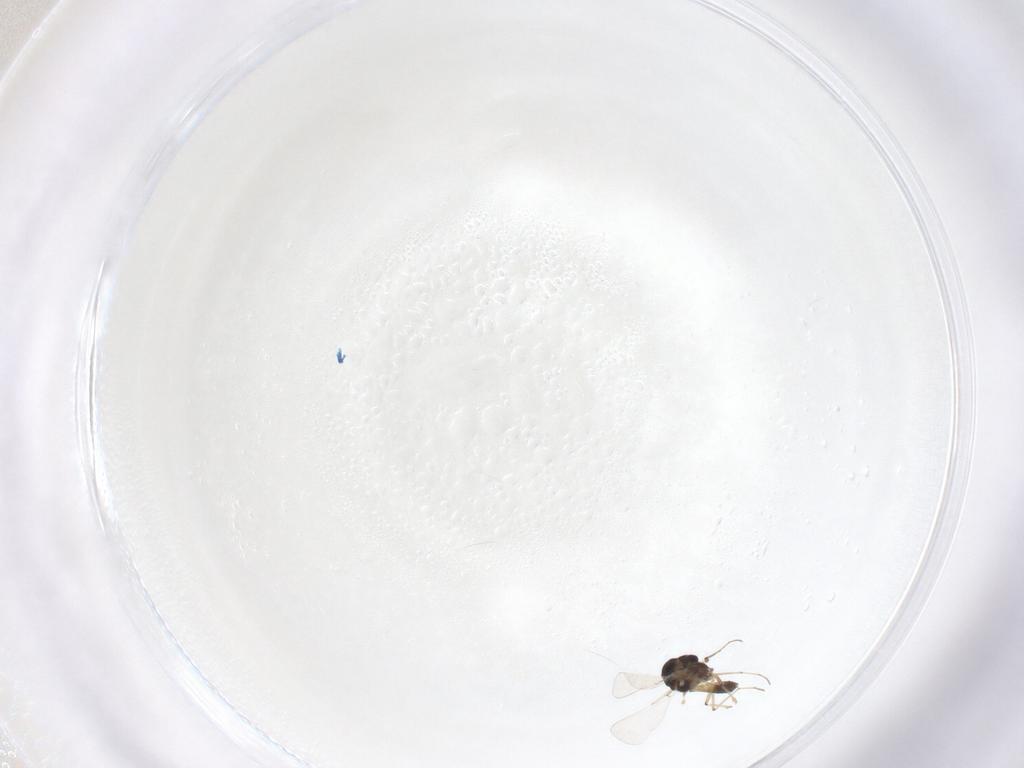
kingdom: Animalia
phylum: Arthropoda
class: Insecta
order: Diptera
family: Chironomidae
